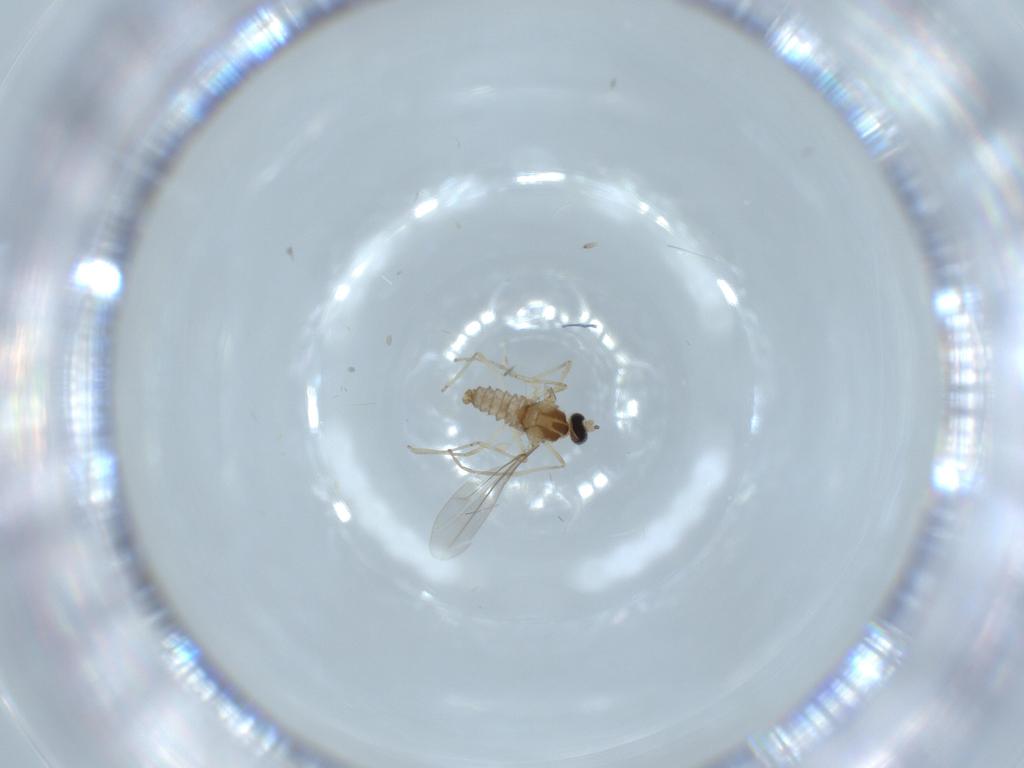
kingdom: Animalia
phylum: Arthropoda
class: Insecta
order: Diptera
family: Cecidomyiidae
